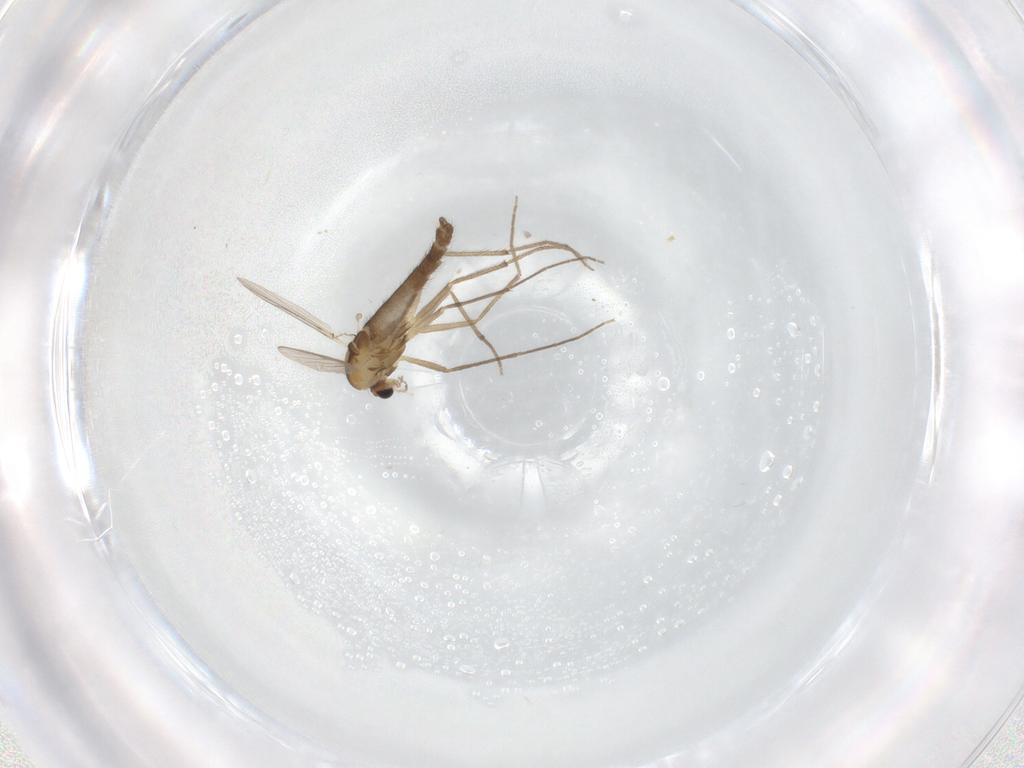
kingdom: Animalia
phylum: Arthropoda
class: Insecta
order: Diptera
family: Chironomidae
